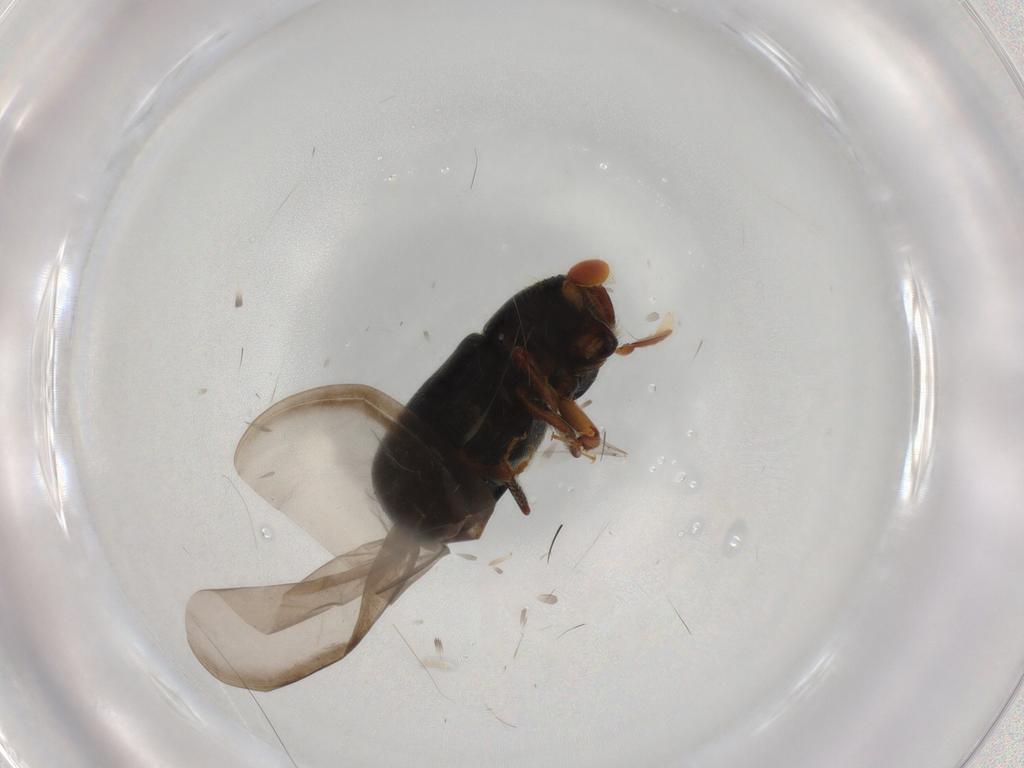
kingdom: Animalia
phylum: Arthropoda
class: Insecta
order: Coleoptera
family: Curculionidae
